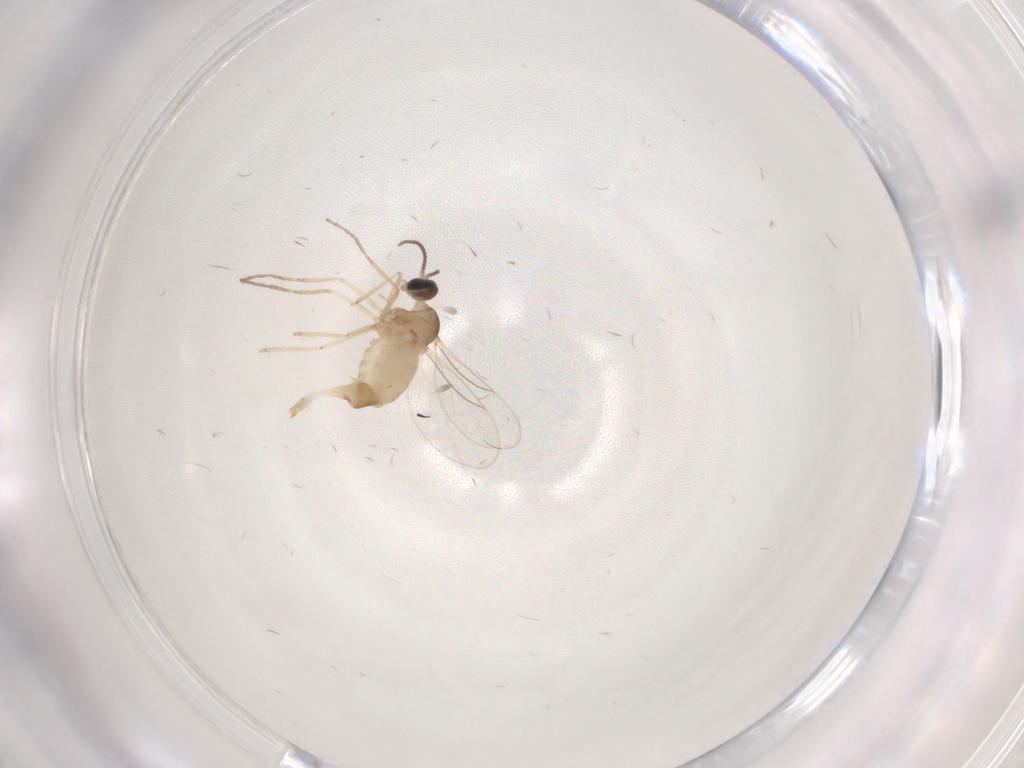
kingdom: Animalia
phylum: Arthropoda
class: Insecta
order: Diptera
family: Cecidomyiidae
